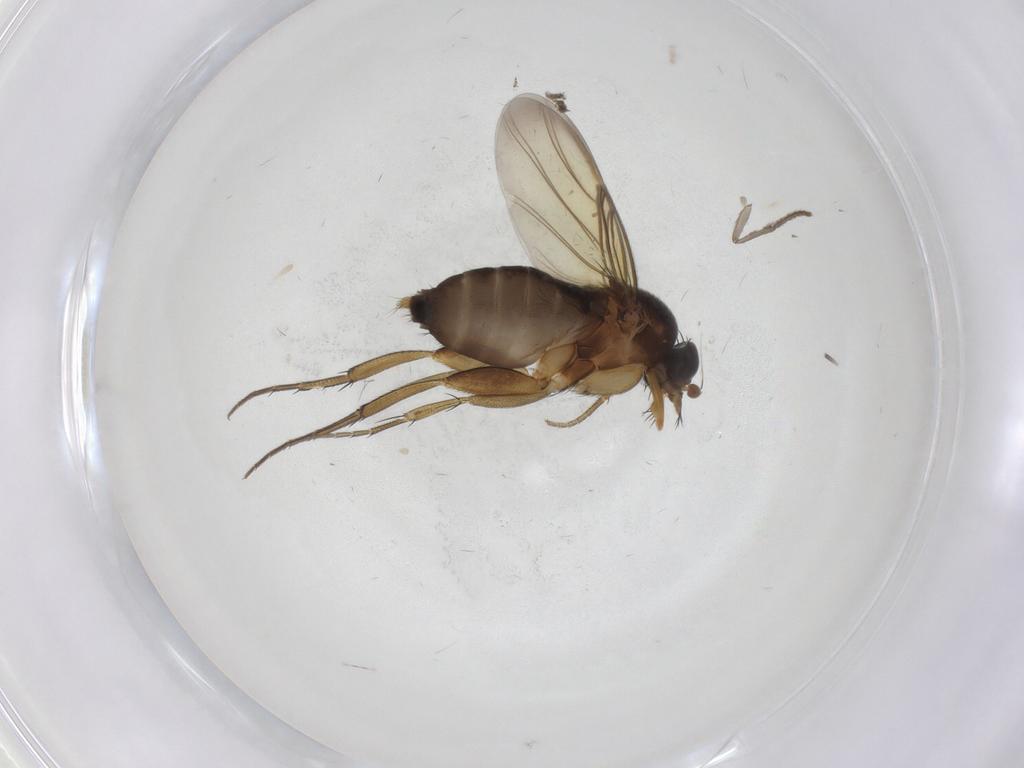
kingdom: Animalia
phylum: Arthropoda
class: Insecta
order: Diptera
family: Phoridae
